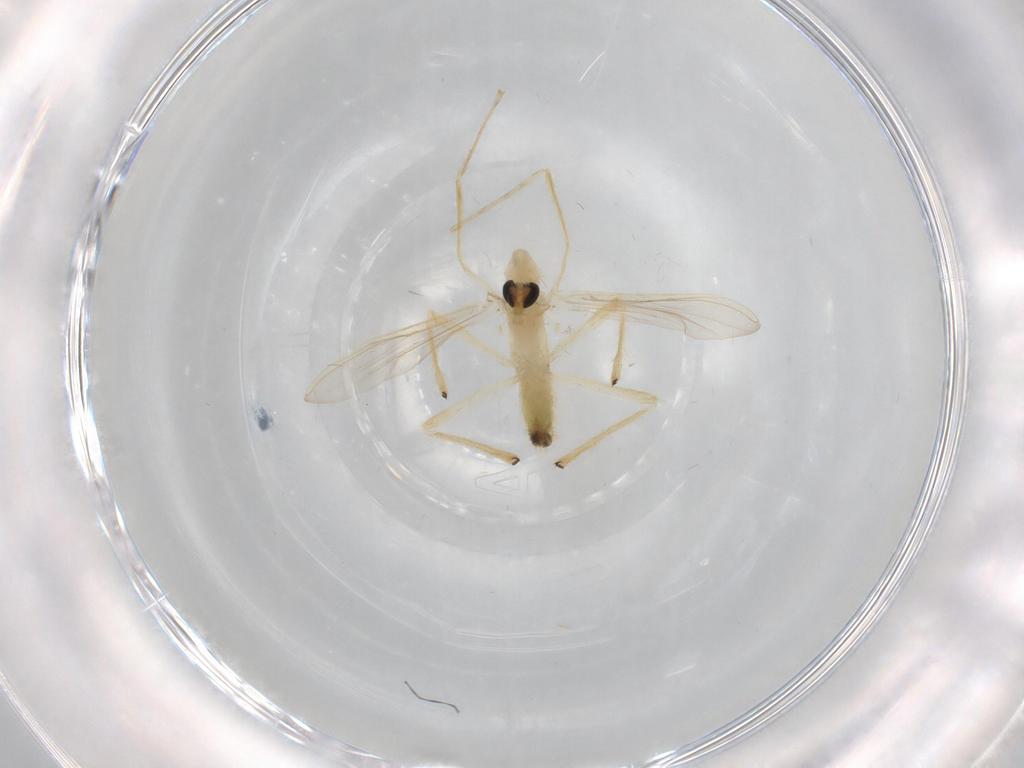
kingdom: Animalia
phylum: Arthropoda
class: Insecta
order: Diptera
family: Chironomidae
